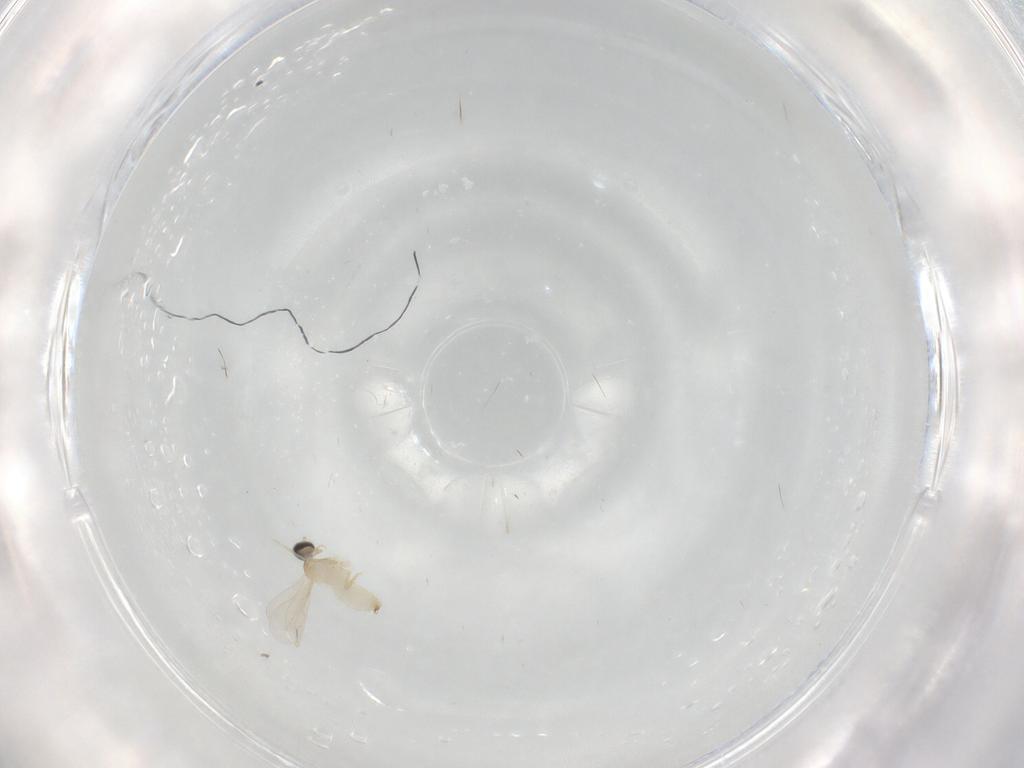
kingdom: Animalia
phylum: Arthropoda
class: Insecta
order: Diptera
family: Cecidomyiidae
